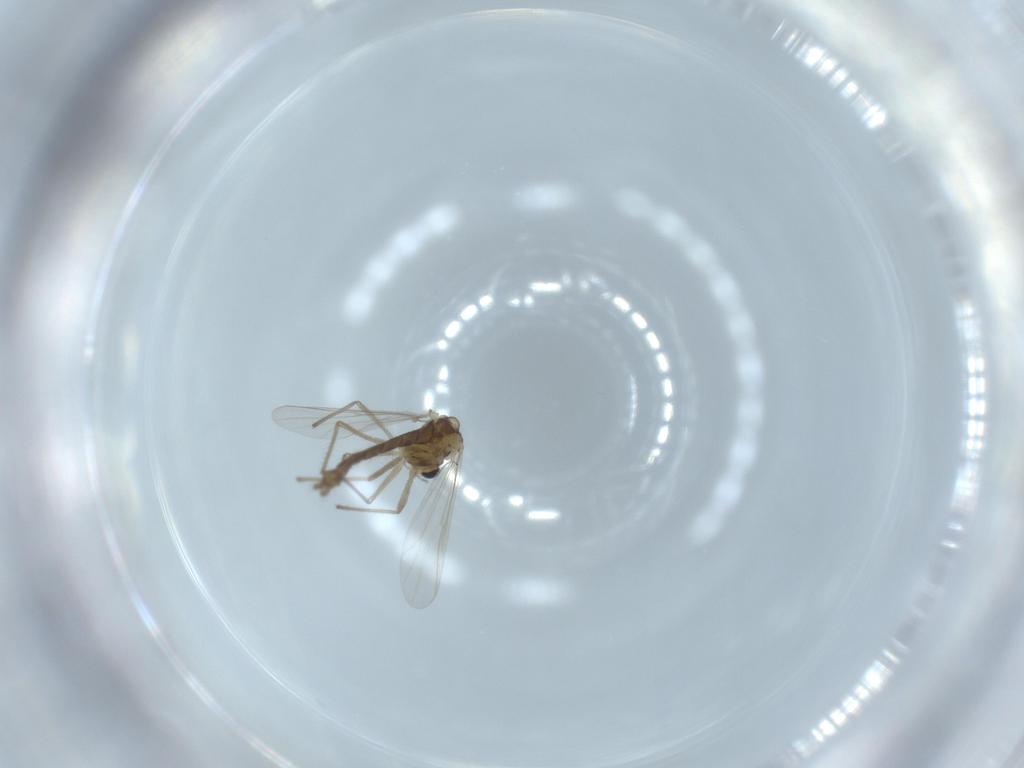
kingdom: Animalia
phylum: Arthropoda
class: Insecta
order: Diptera
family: Chironomidae
